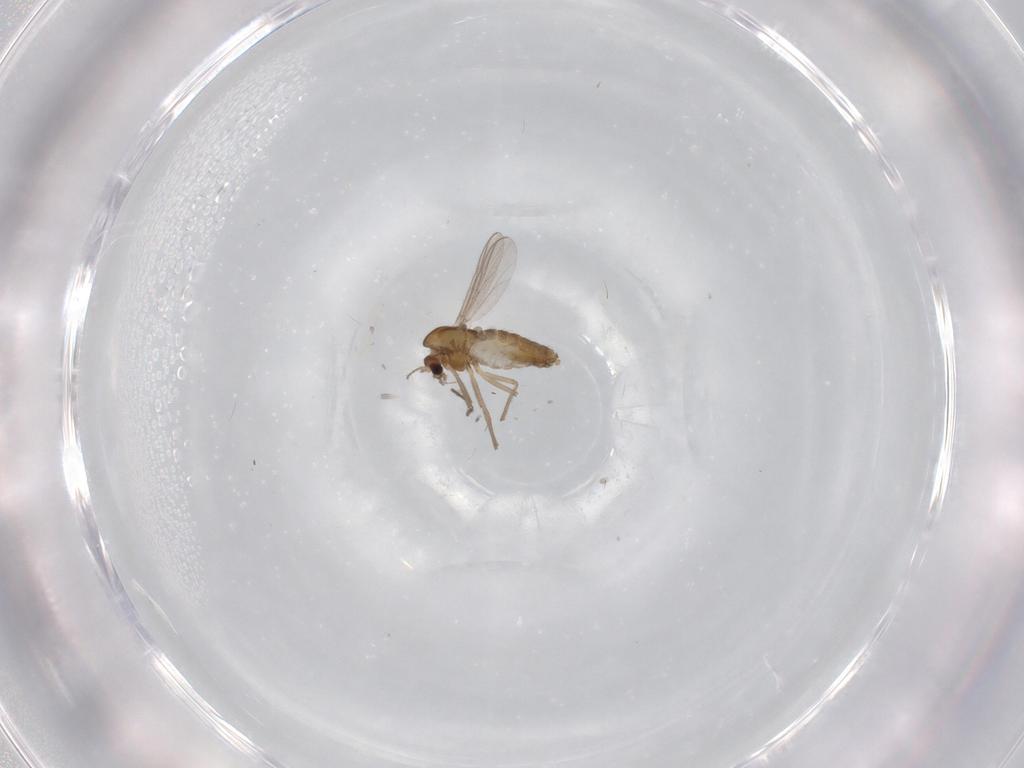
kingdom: Animalia
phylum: Arthropoda
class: Insecta
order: Diptera
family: Chironomidae
